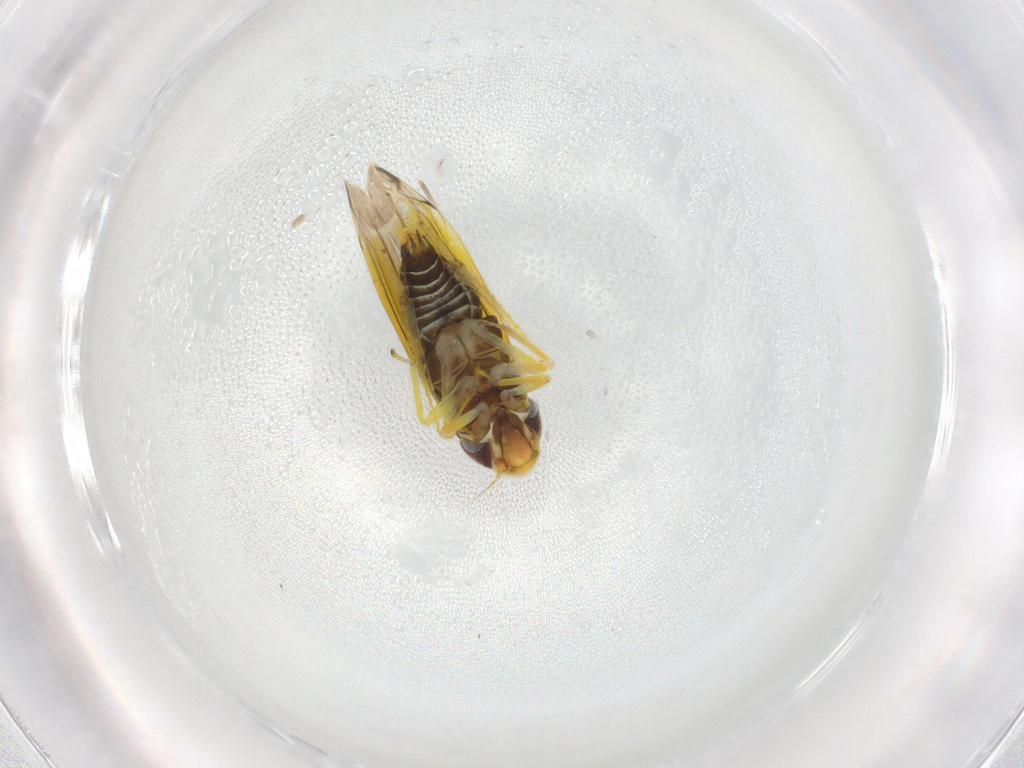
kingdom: Animalia
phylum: Arthropoda
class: Insecta
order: Hemiptera
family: Cicadellidae
